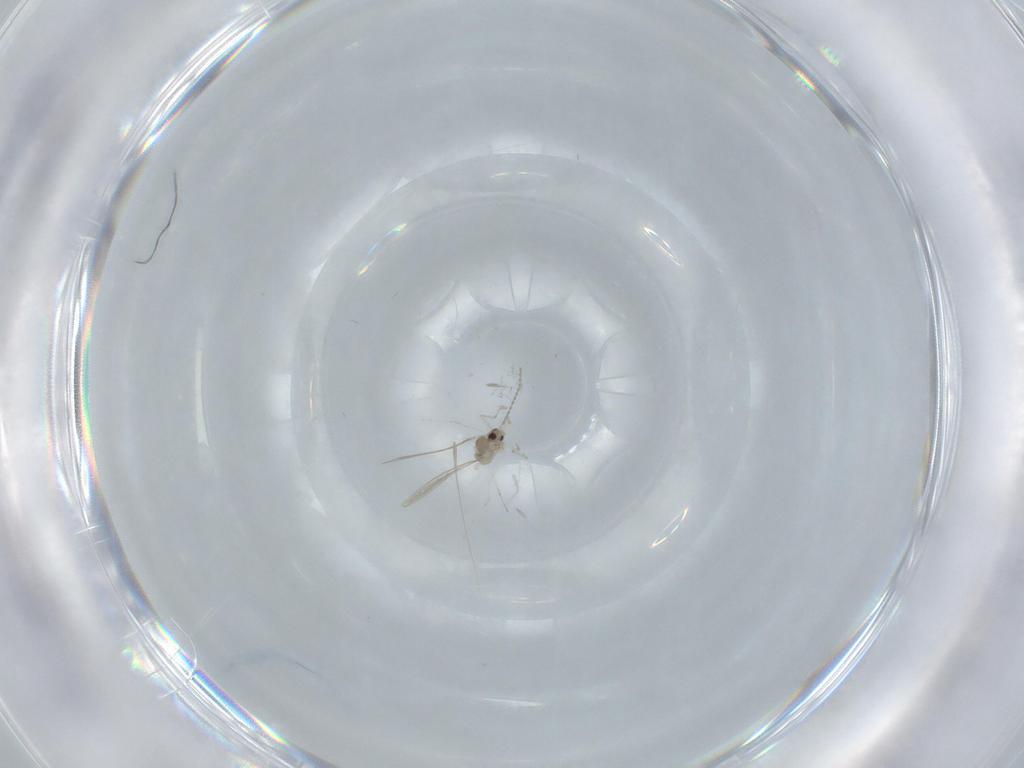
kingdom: Animalia
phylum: Arthropoda
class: Insecta
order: Diptera
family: Cecidomyiidae
